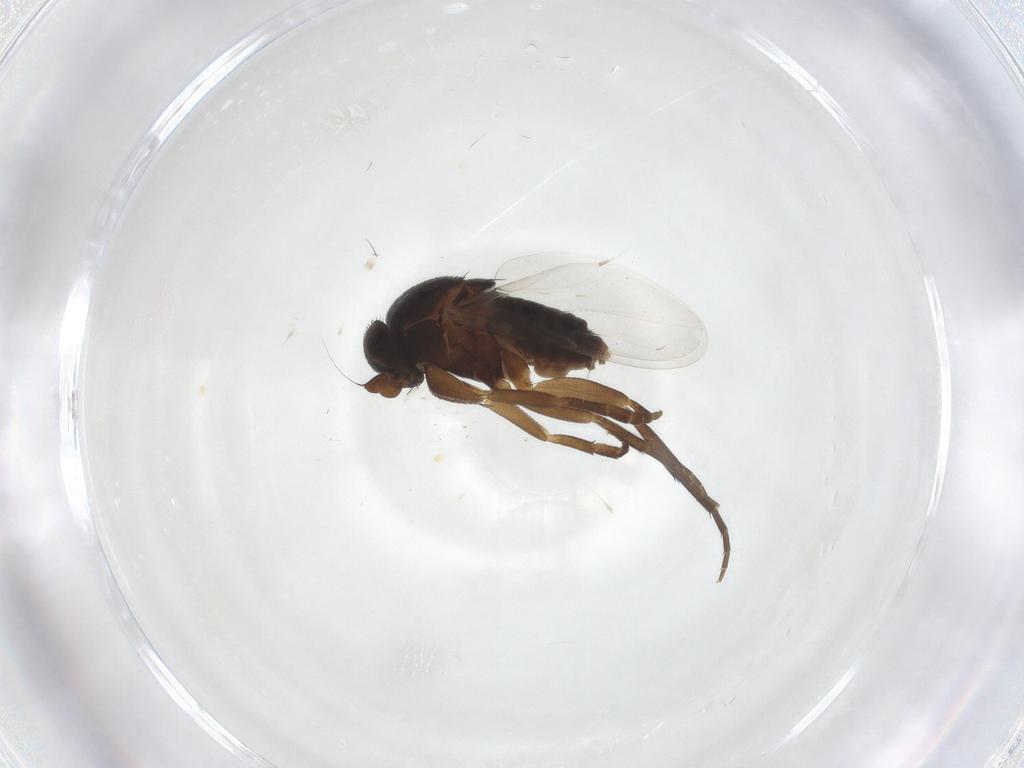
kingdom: Animalia
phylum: Arthropoda
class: Insecta
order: Diptera
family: Phoridae
